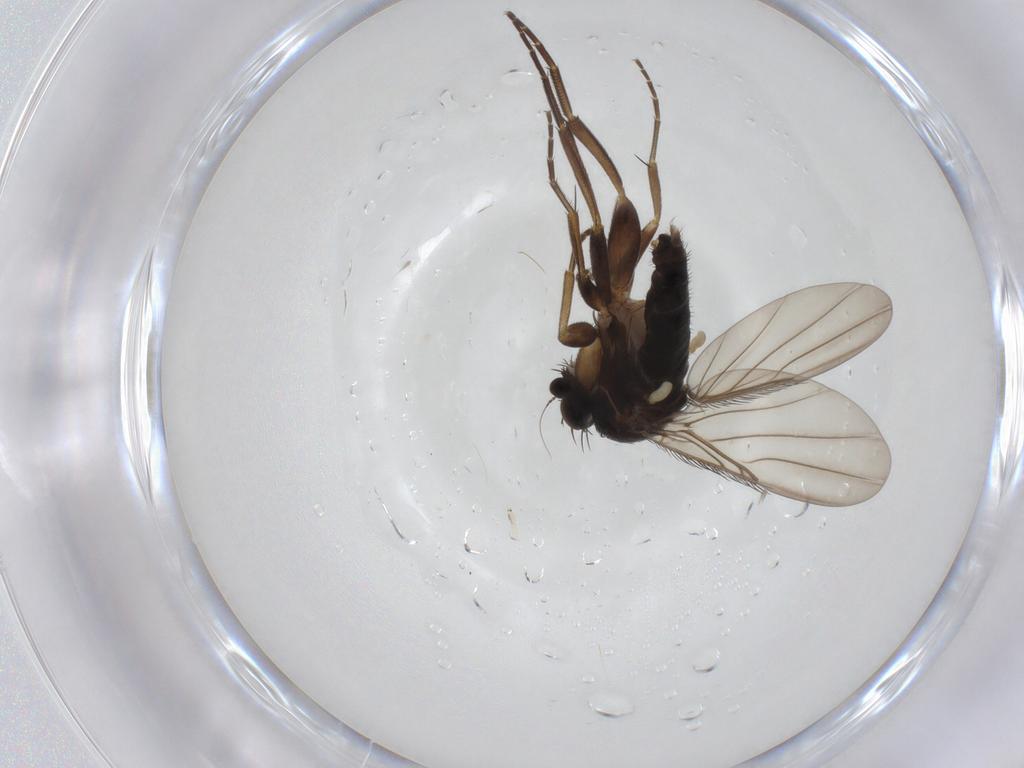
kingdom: Animalia
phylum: Arthropoda
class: Insecta
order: Diptera
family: Phoridae
